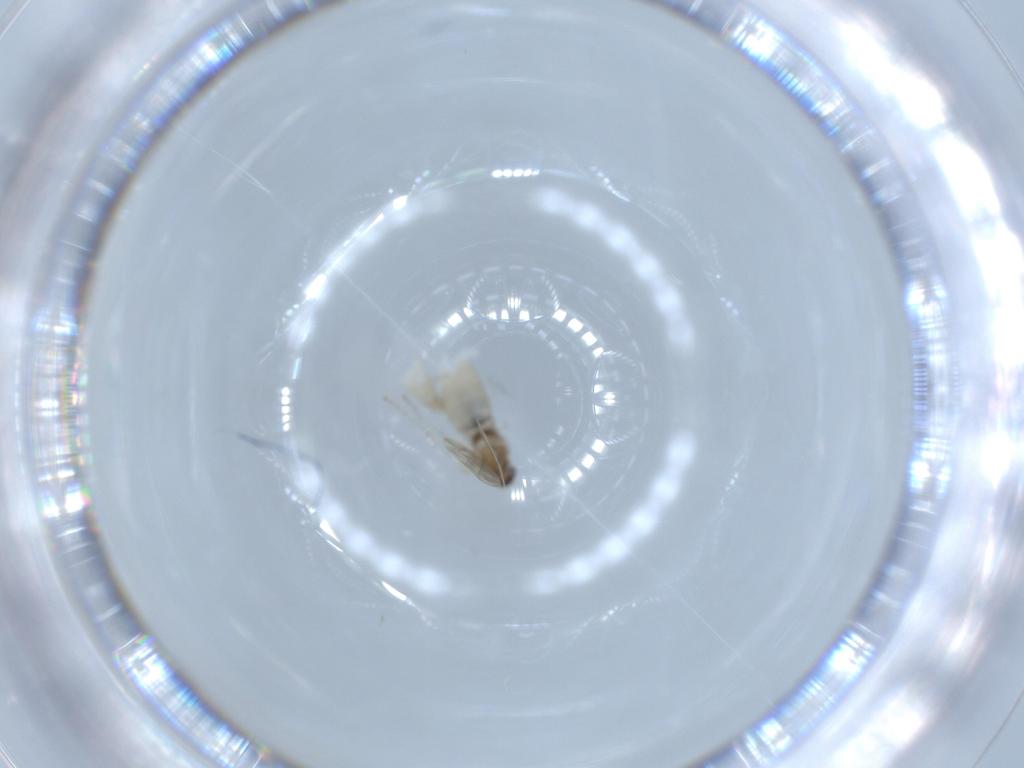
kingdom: Animalia
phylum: Arthropoda
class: Insecta
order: Diptera
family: Cecidomyiidae
